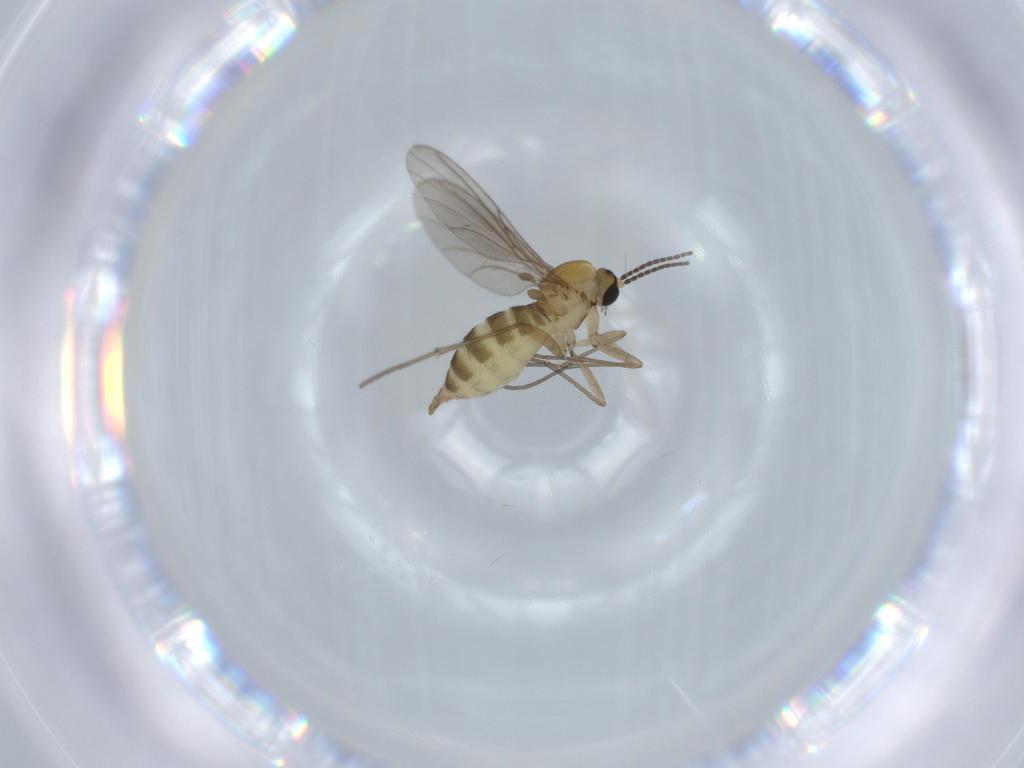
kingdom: Animalia
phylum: Arthropoda
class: Insecta
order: Diptera
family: Sciaridae
